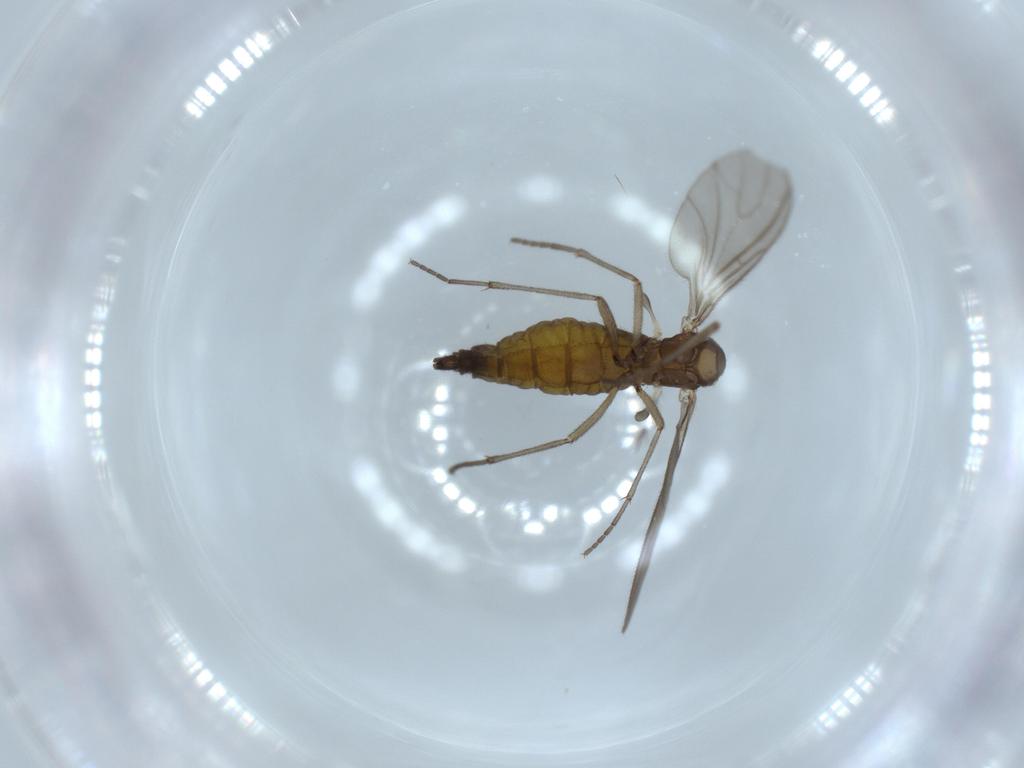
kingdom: Animalia
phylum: Arthropoda
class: Insecta
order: Diptera
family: Sciaridae
